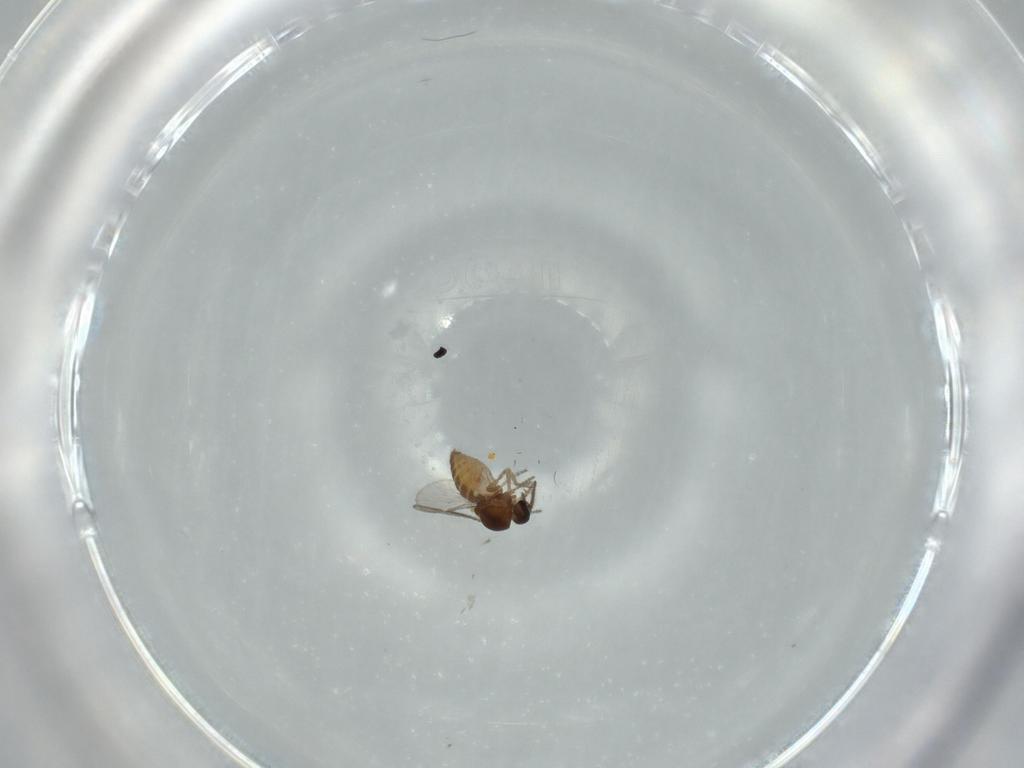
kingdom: Animalia
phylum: Arthropoda
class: Insecta
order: Diptera
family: Ceratopogonidae
